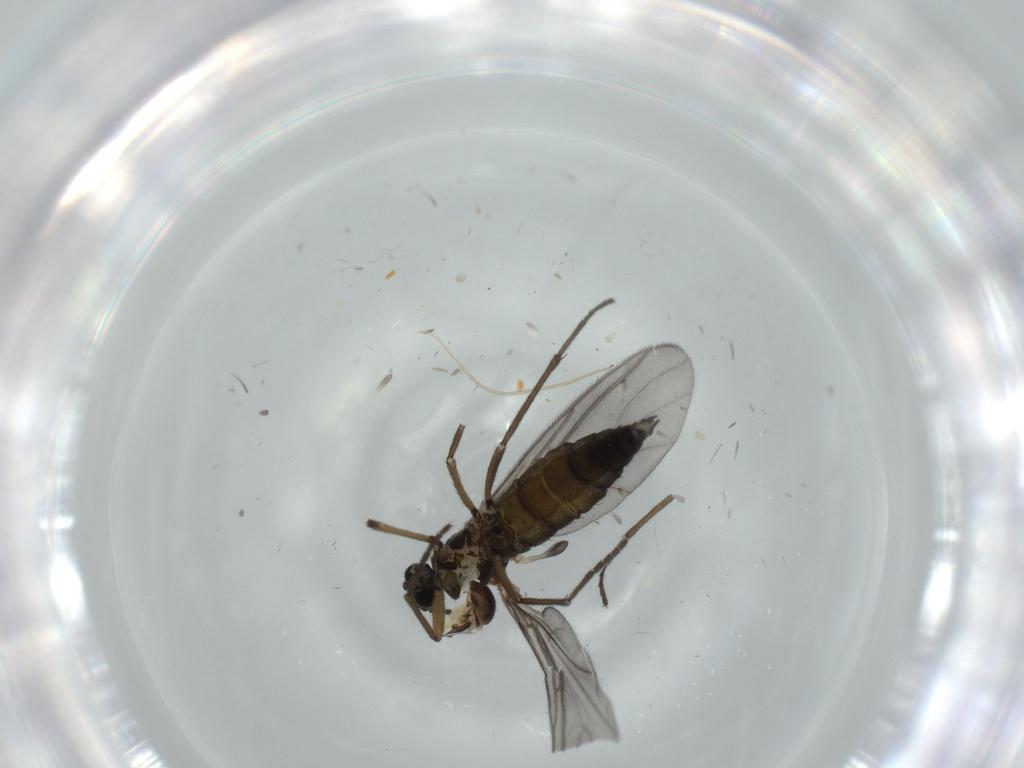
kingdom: Animalia
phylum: Arthropoda
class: Insecta
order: Diptera
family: Sciaridae
